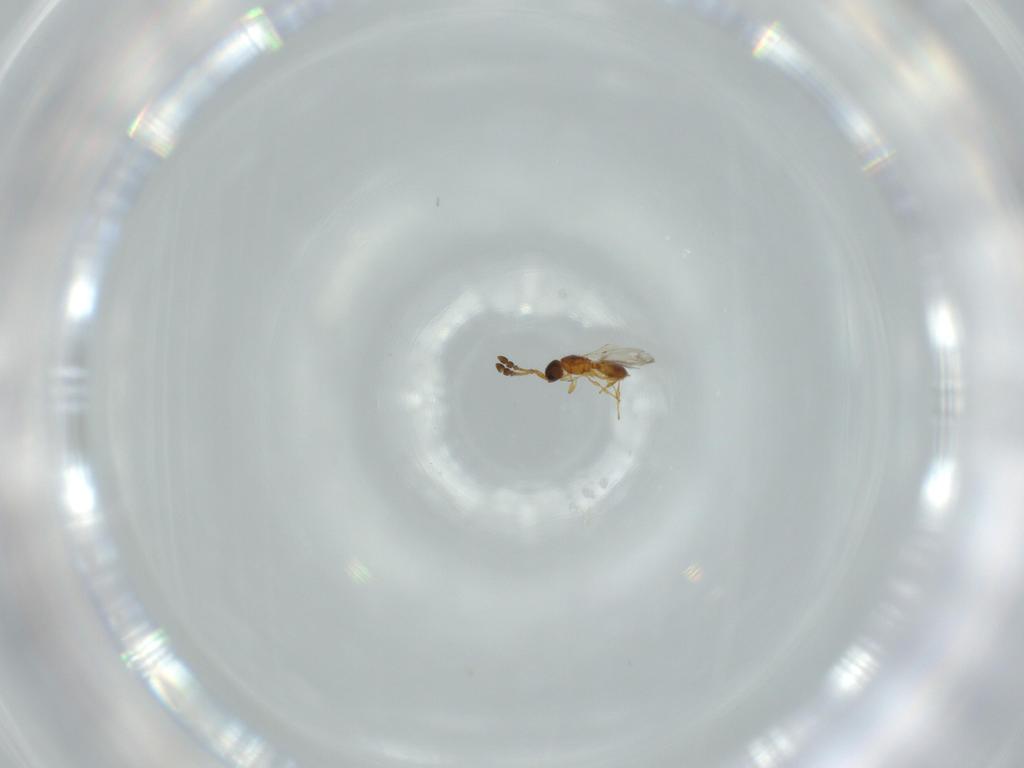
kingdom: Animalia
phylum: Arthropoda
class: Insecta
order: Hymenoptera
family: Diapriidae
